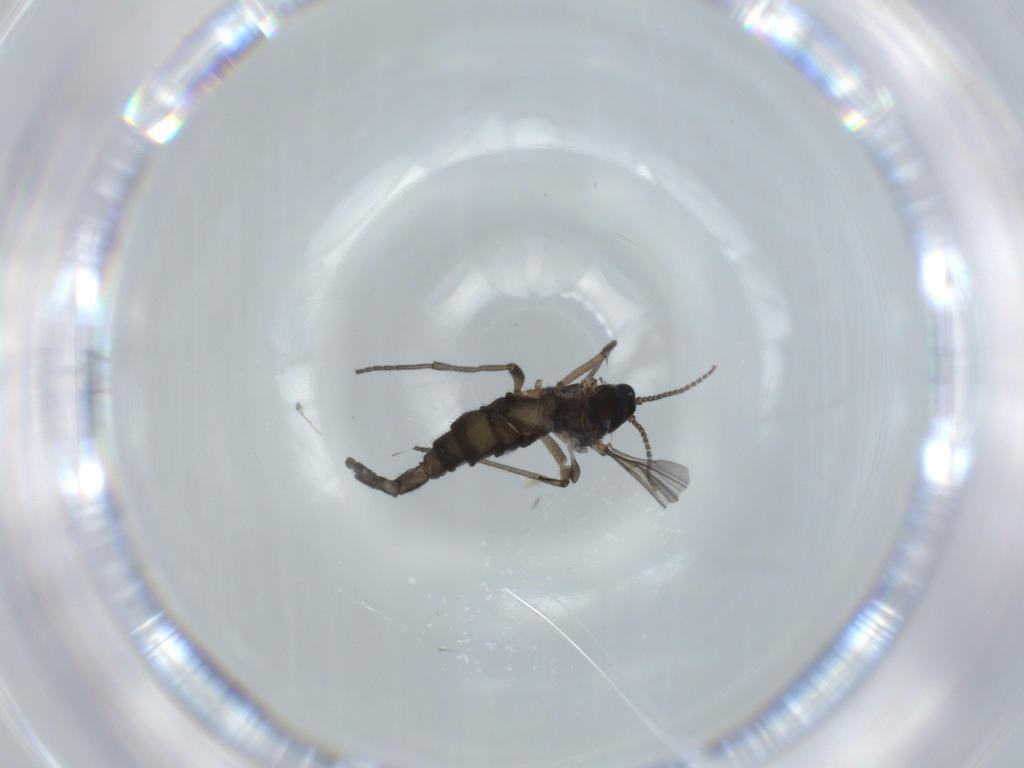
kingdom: Animalia
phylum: Arthropoda
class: Insecta
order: Diptera
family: Sciaridae
